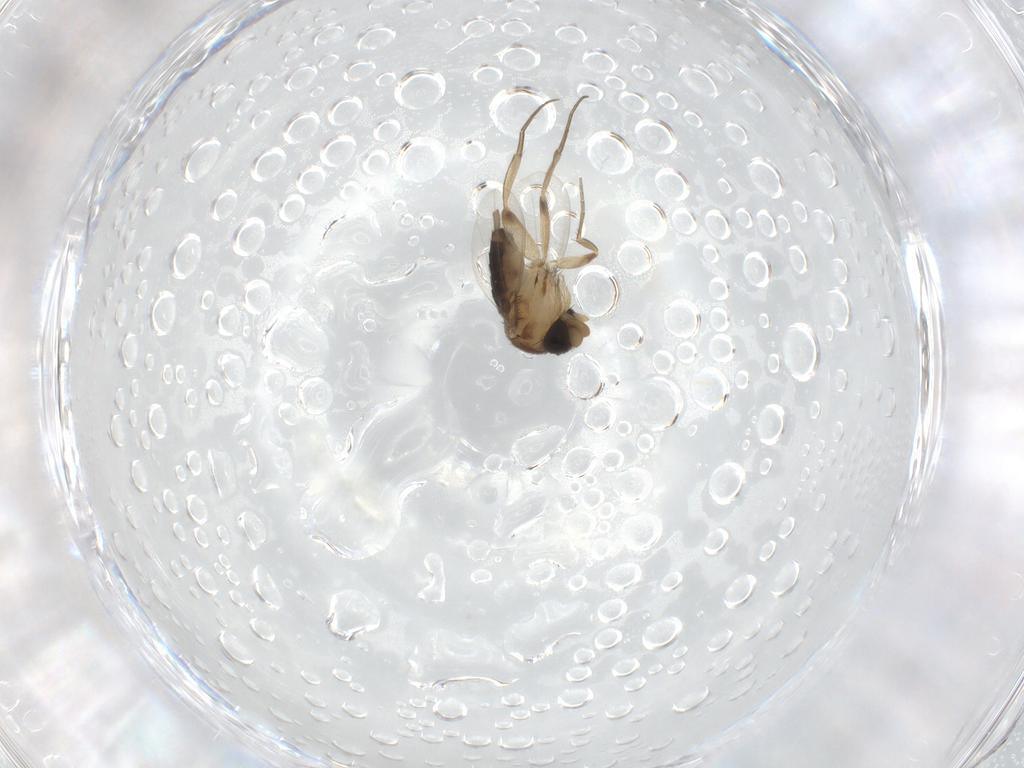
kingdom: Animalia
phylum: Arthropoda
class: Insecta
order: Diptera
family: Phoridae
